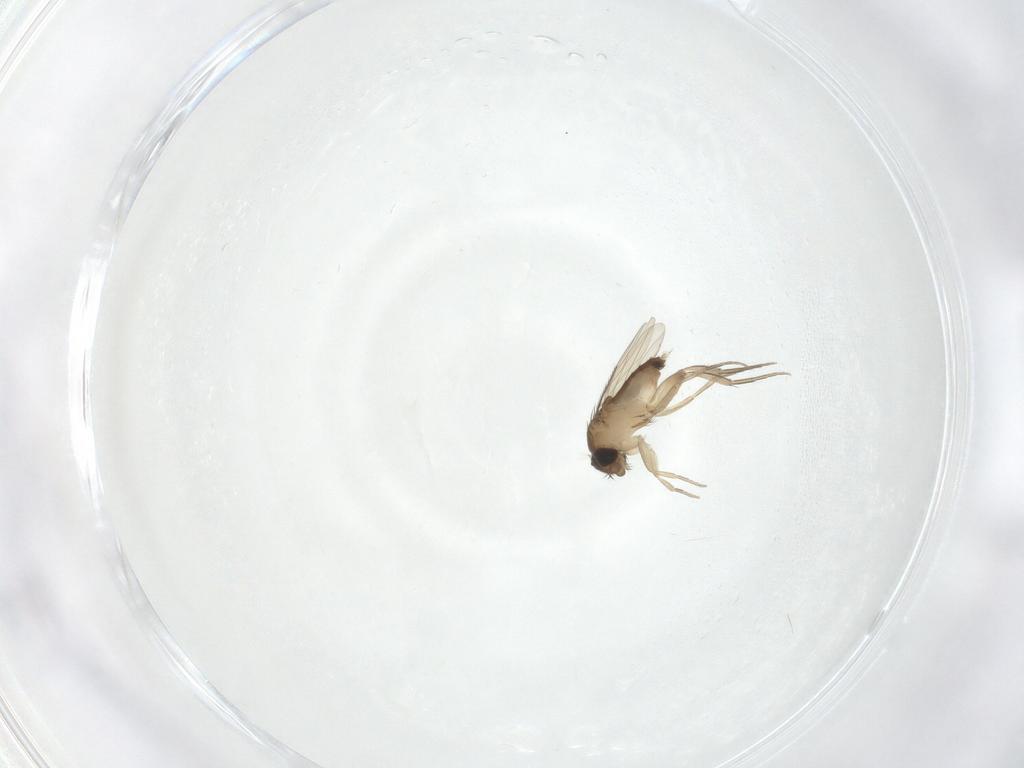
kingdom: Animalia
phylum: Arthropoda
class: Insecta
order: Diptera
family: Phoridae
